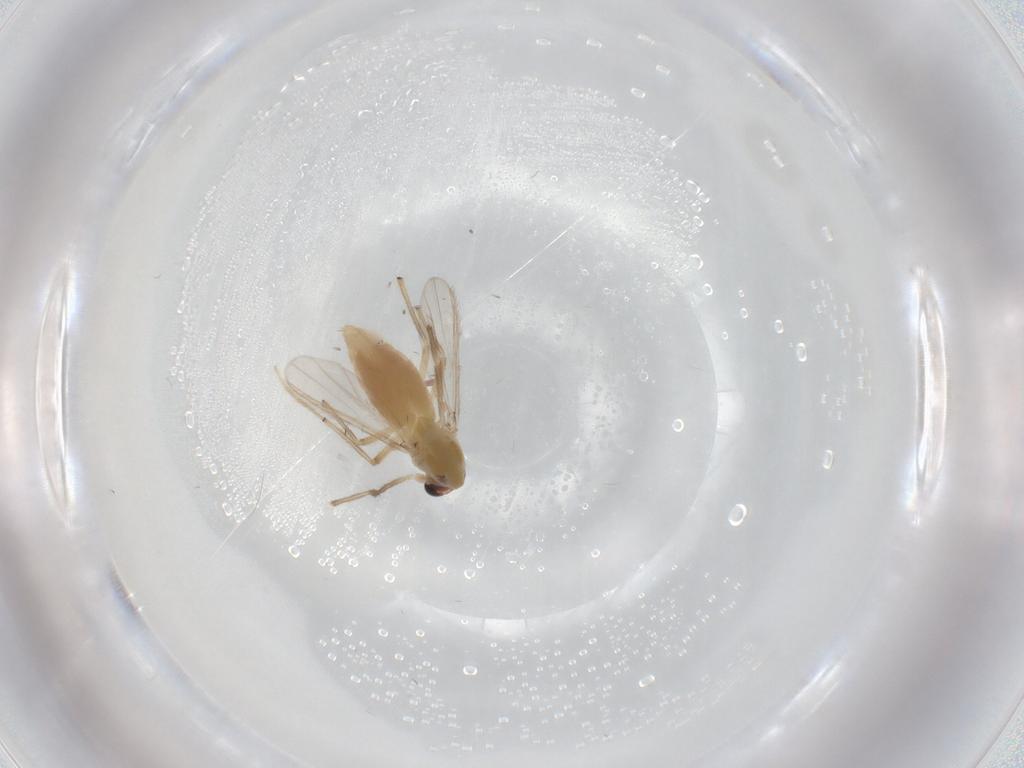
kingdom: Animalia
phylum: Arthropoda
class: Insecta
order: Diptera
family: Chironomidae
